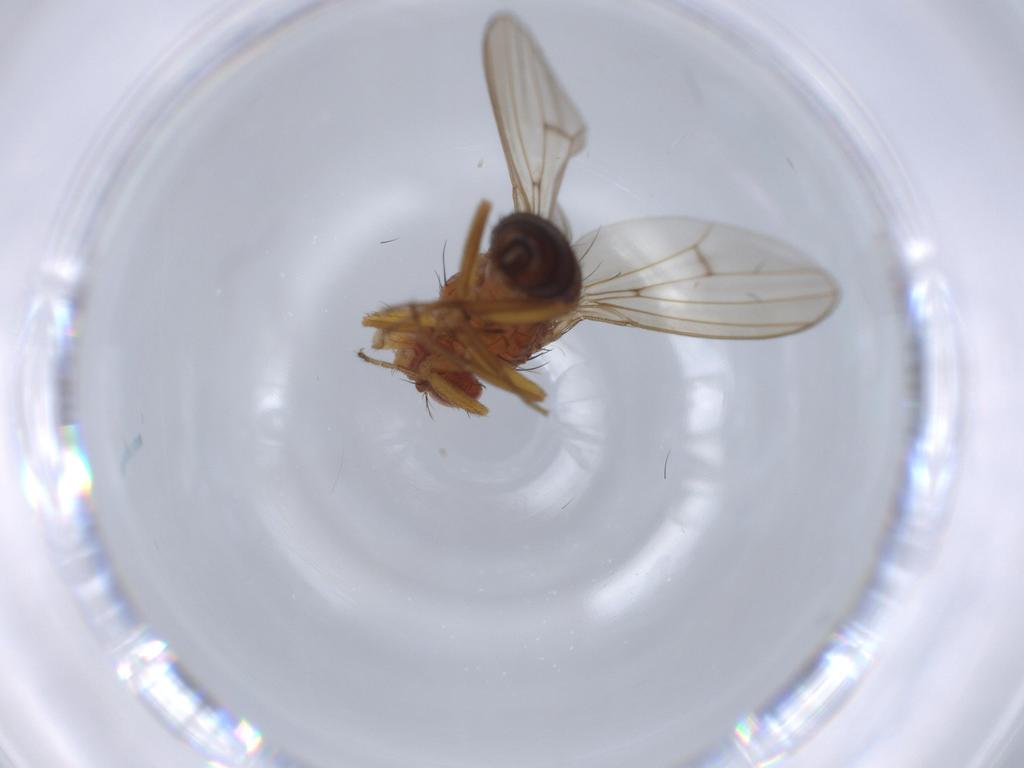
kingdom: Animalia
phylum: Arthropoda
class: Insecta
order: Diptera
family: Drosophilidae
